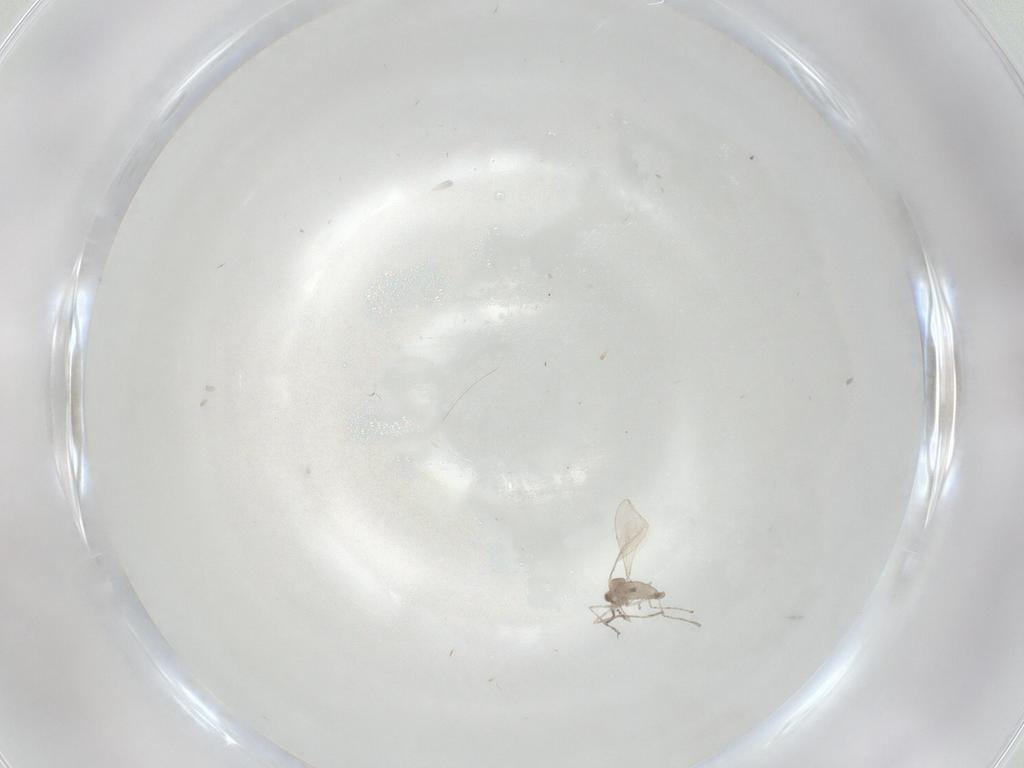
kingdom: Animalia
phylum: Arthropoda
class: Insecta
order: Diptera
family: Cecidomyiidae
